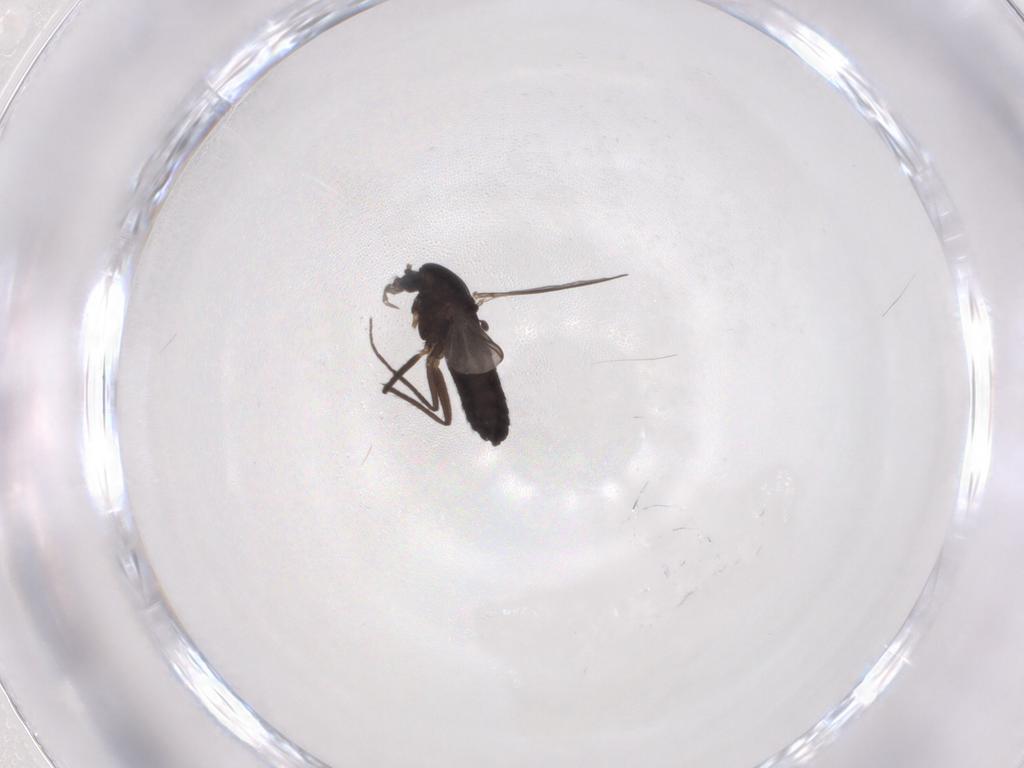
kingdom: Animalia
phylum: Arthropoda
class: Insecta
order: Diptera
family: Chironomidae
